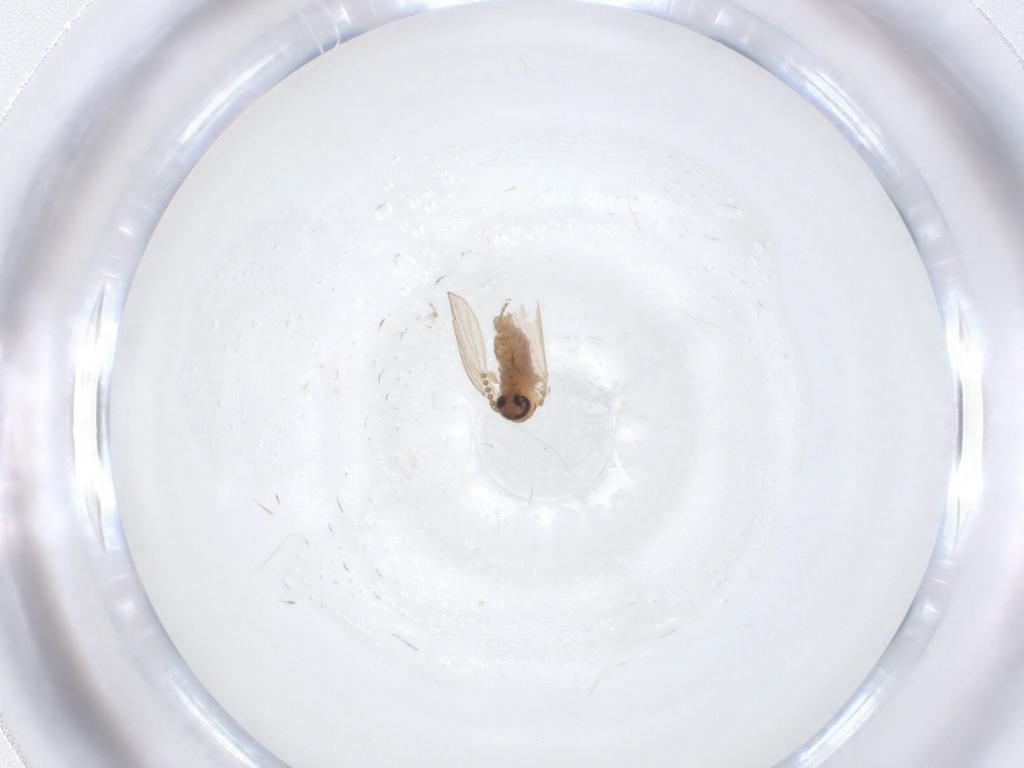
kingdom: Animalia
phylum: Arthropoda
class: Insecta
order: Diptera
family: Psychodidae
